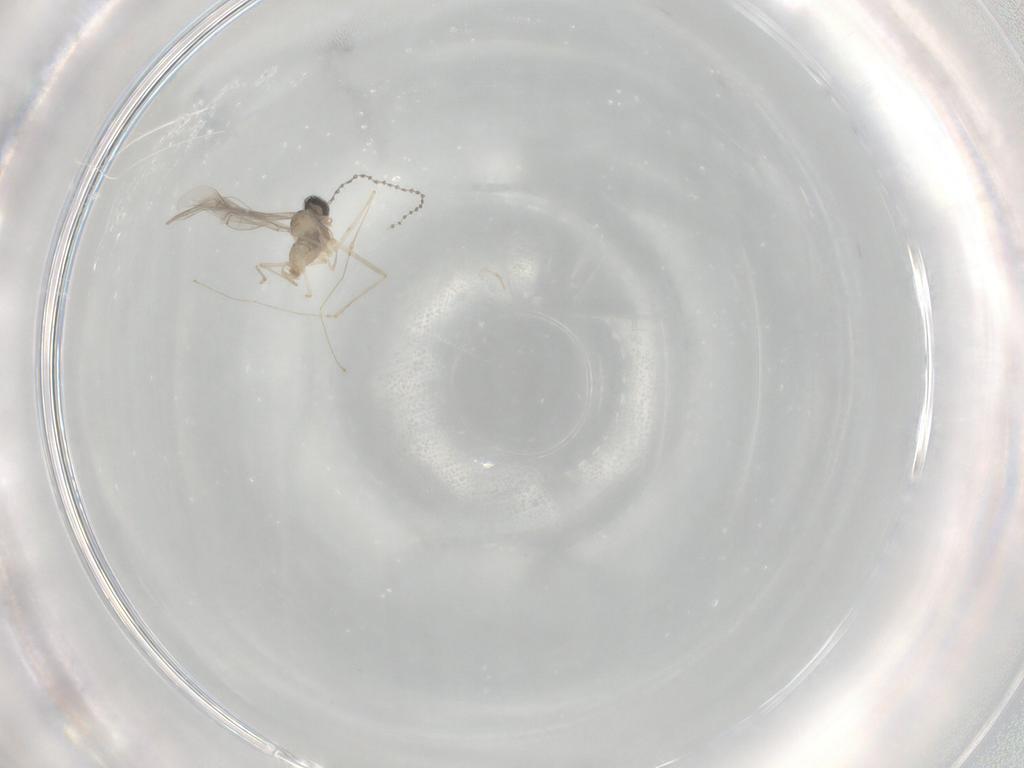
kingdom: Animalia
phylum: Arthropoda
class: Insecta
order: Diptera
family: Cecidomyiidae
